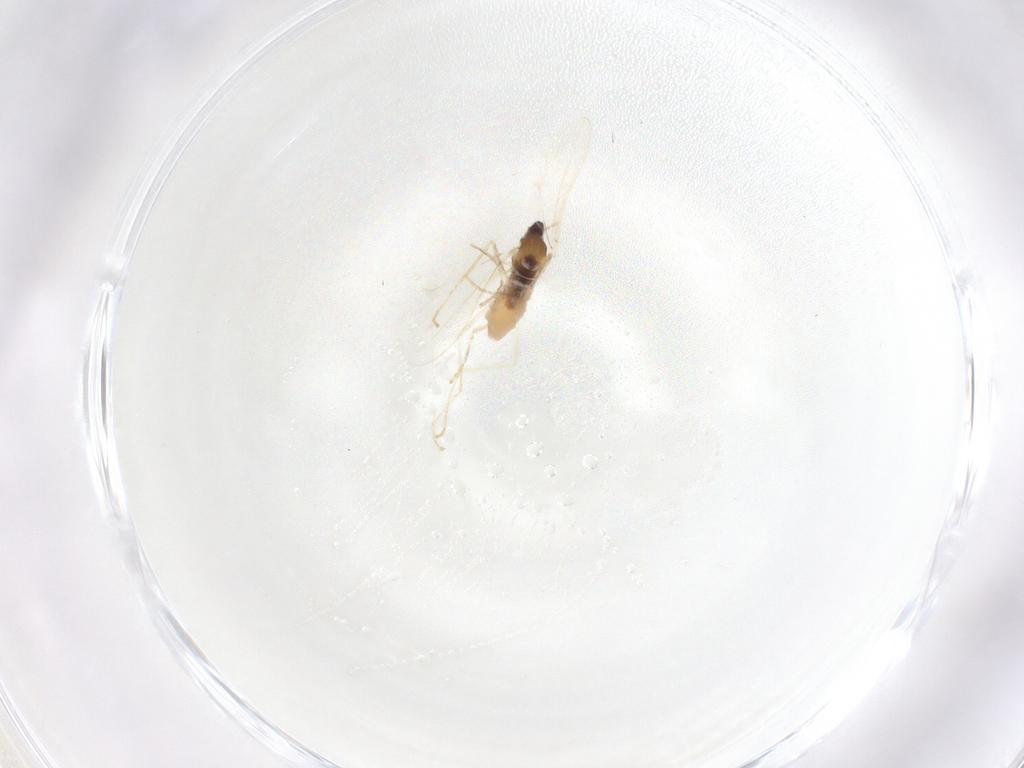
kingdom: Animalia
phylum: Arthropoda
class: Insecta
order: Diptera
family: Cecidomyiidae
